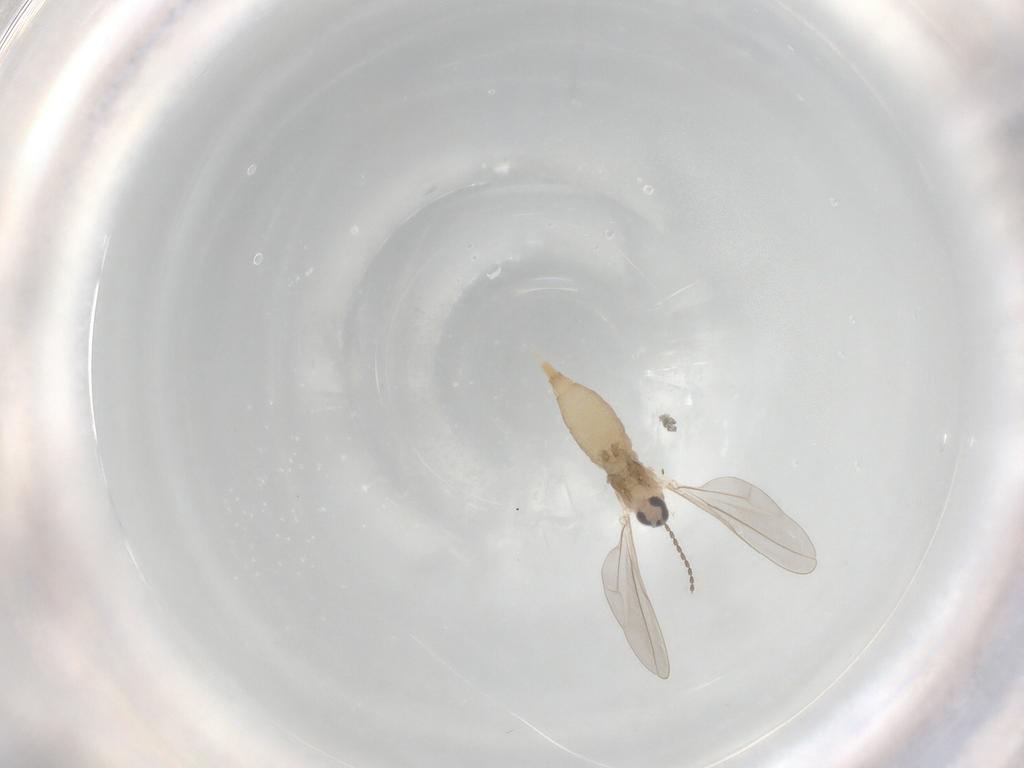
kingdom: Animalia
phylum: Arthropoda
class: Insecta
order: Diptera
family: Cecidomyiidae
